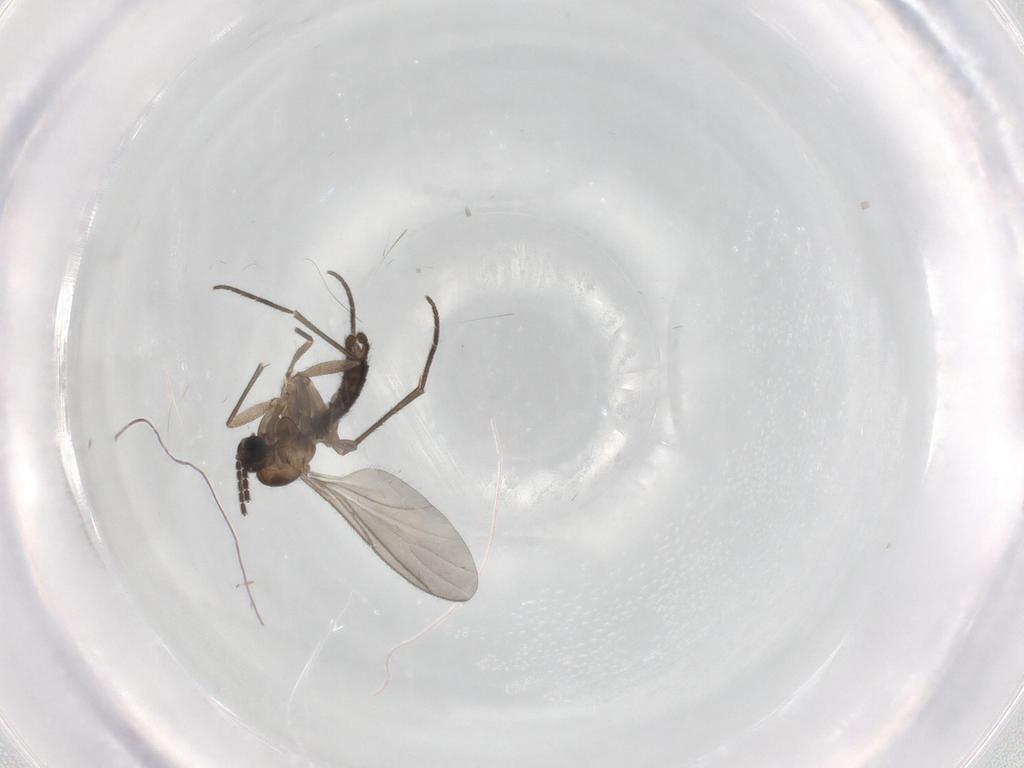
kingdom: Animalia
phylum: Arthropoda
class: Insecta
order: Diptera
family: Sciaridae
